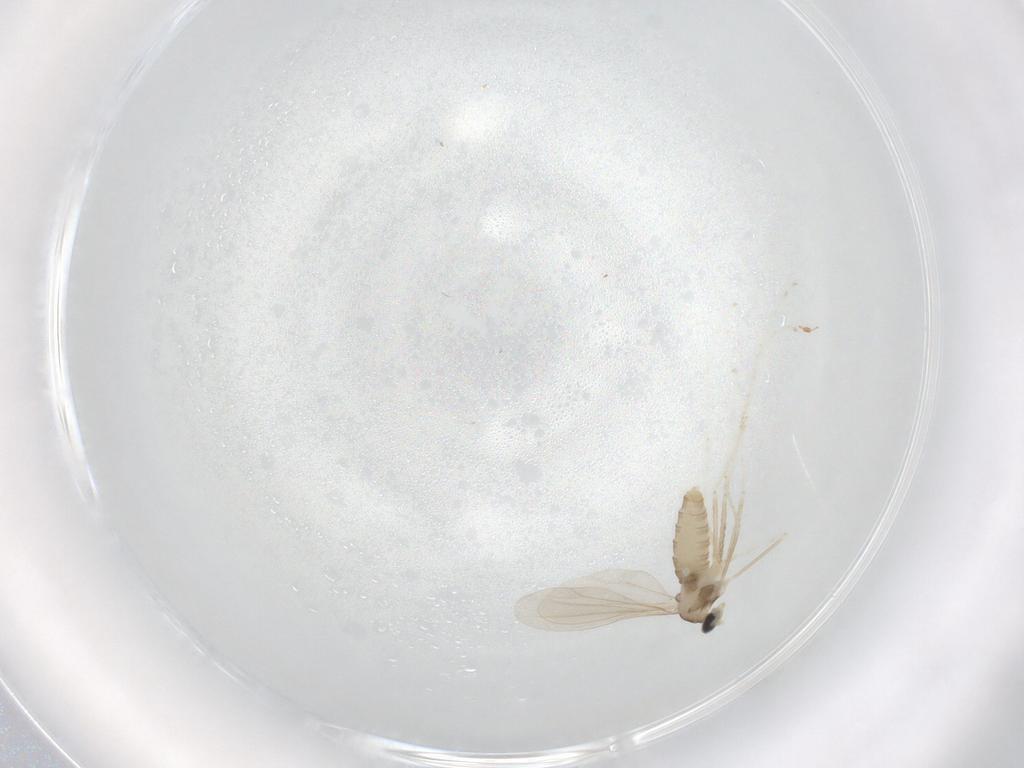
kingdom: Animalia
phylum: Arthropoda
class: Insecta
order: Diptera
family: Cecidomyiidae
